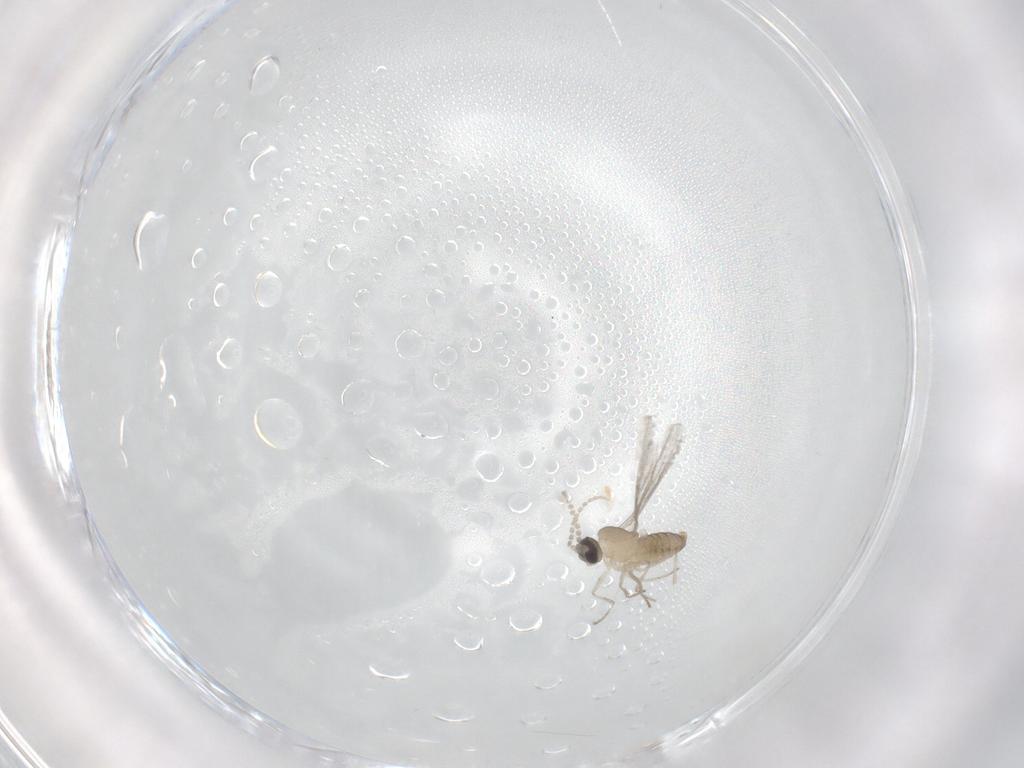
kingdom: Animalia
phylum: Arthropoda
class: Insecta
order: Diptera
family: Cecidomyiidae
